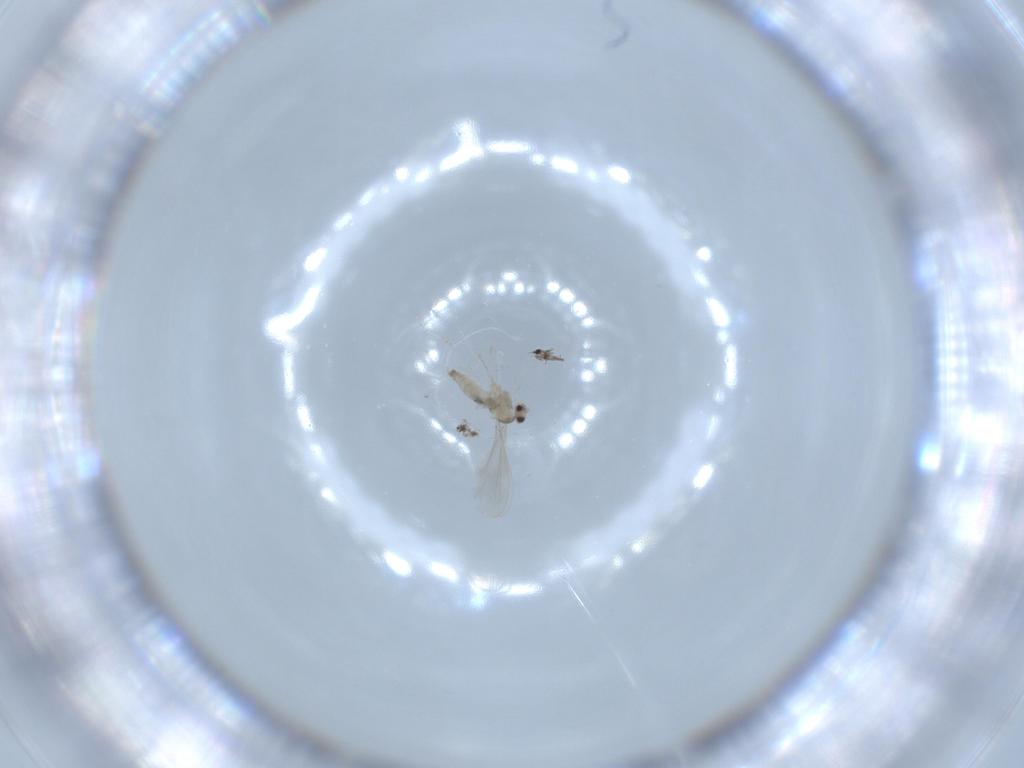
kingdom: Animalia
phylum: Arthropoda
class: Insecta
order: Diptera
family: Cecidomyiidae
